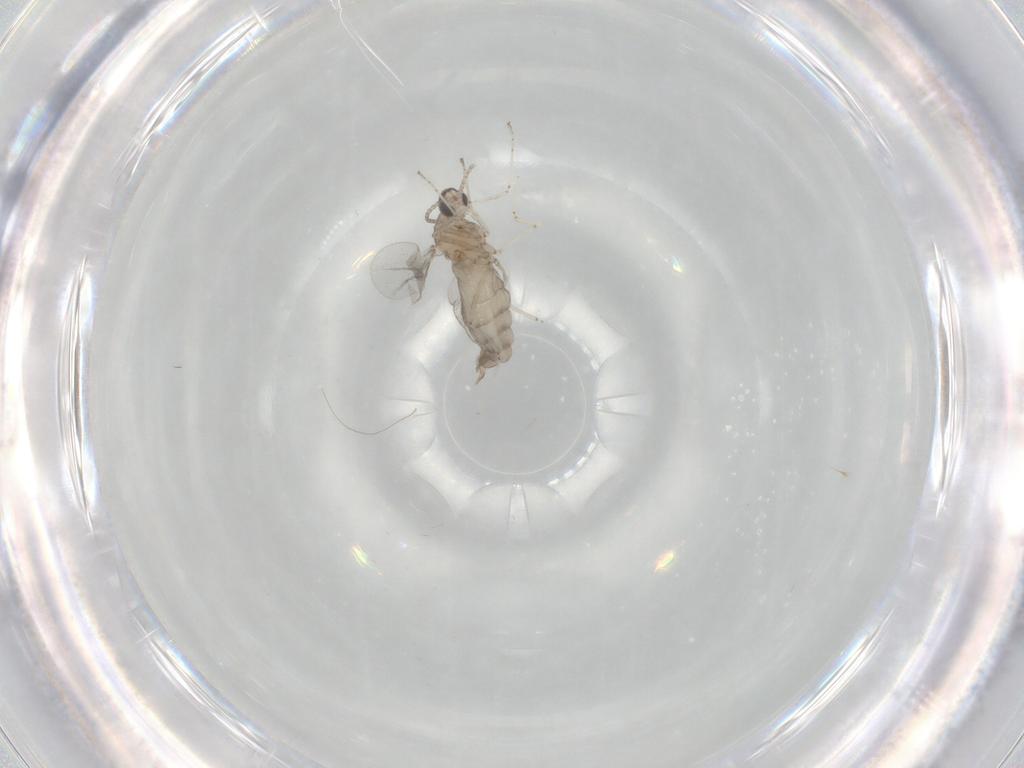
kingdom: Animalia
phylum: Arthropoda
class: Insecta
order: Diptera
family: Cecidomyiidae
